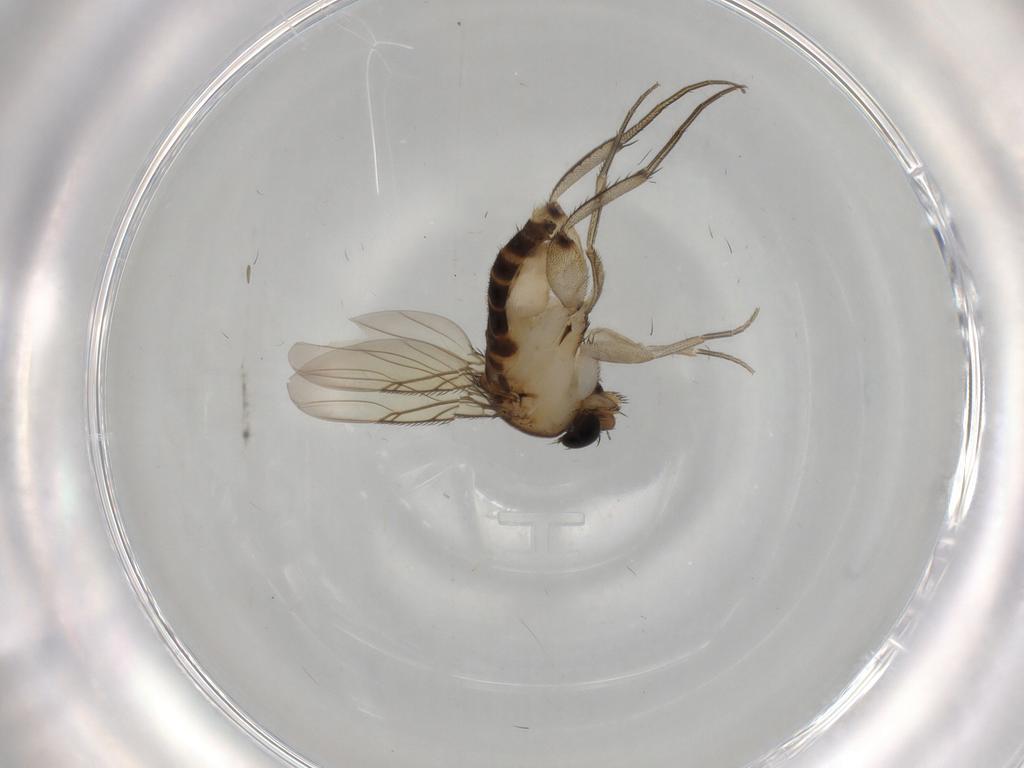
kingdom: Animalia
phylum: Arthropoda
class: Insecta
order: Diptera
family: Phoridae
